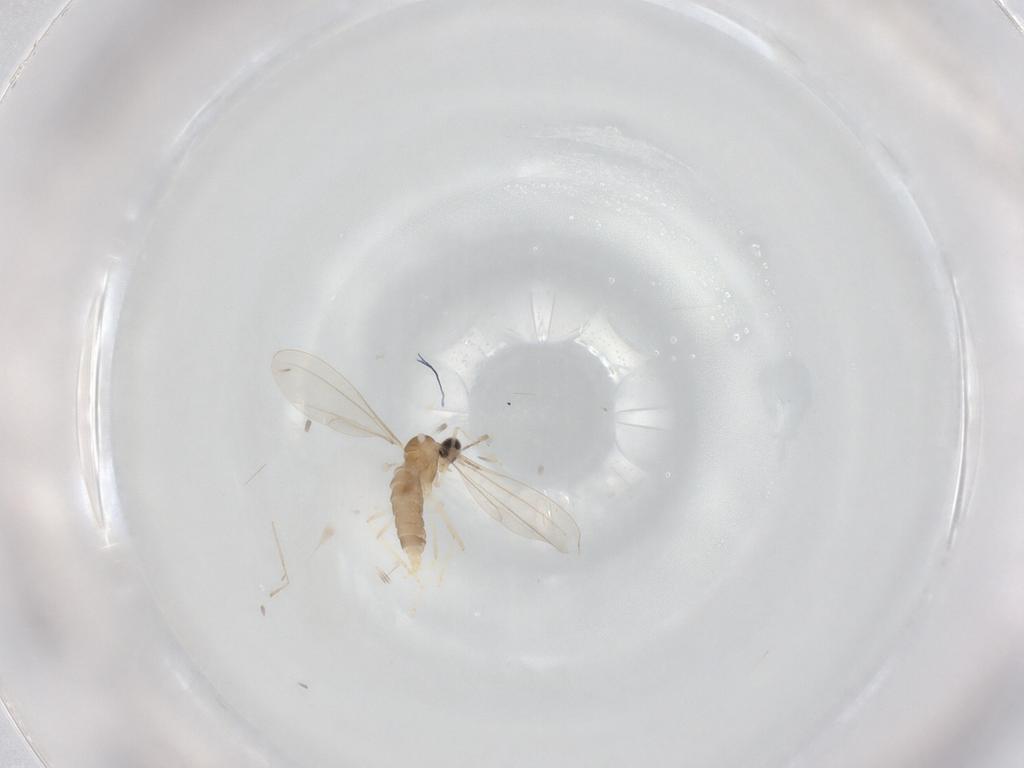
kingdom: Animalia
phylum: Arthropoda
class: Insecta
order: Diptera
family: Cecidomyiidae
